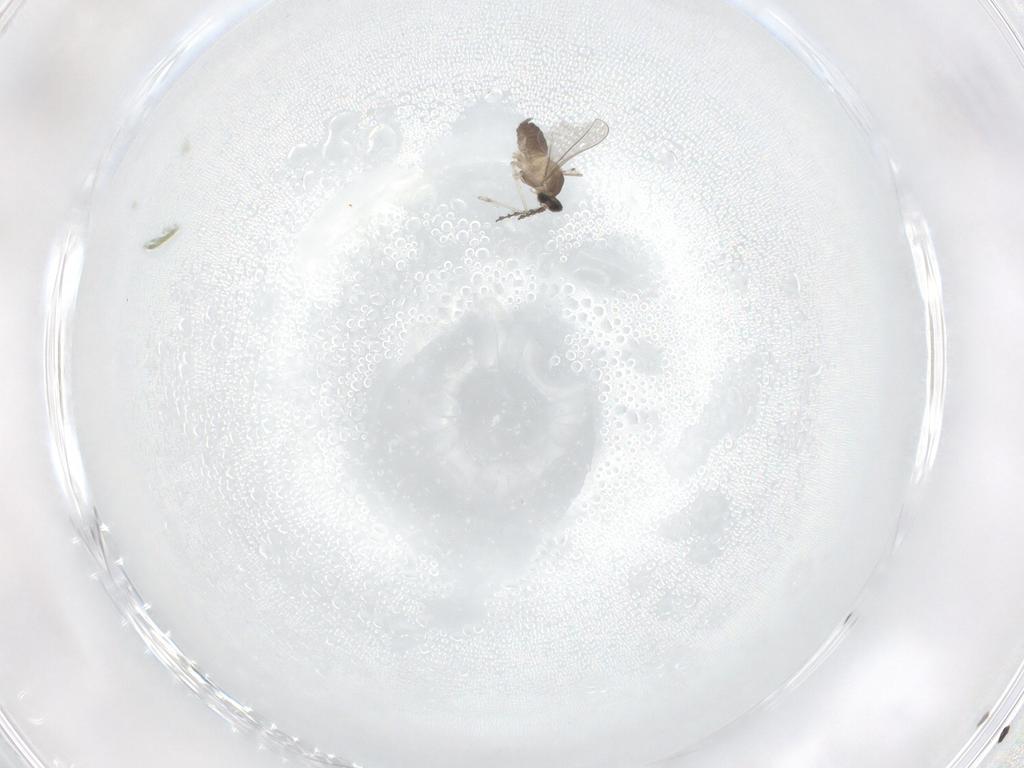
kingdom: Animalia
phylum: Arthropoda
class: Insecta
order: Diptera
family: Cecidomyiidae
